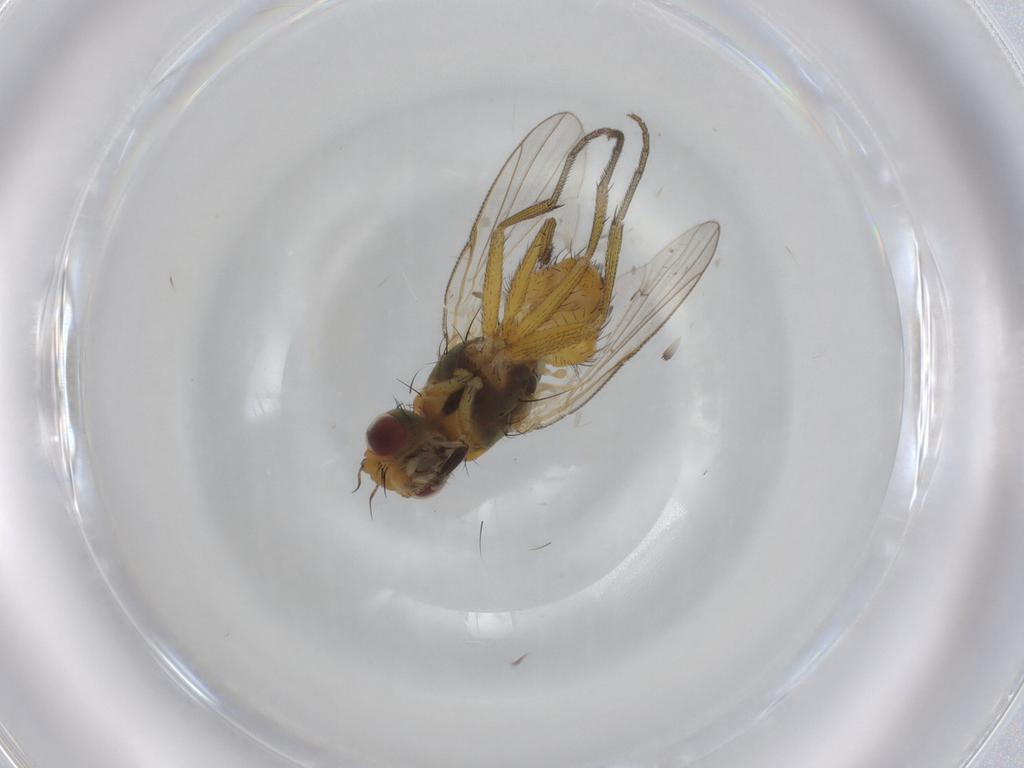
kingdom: Animalia
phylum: Arthropoda
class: Insecta
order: Diptera
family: Muscidae
